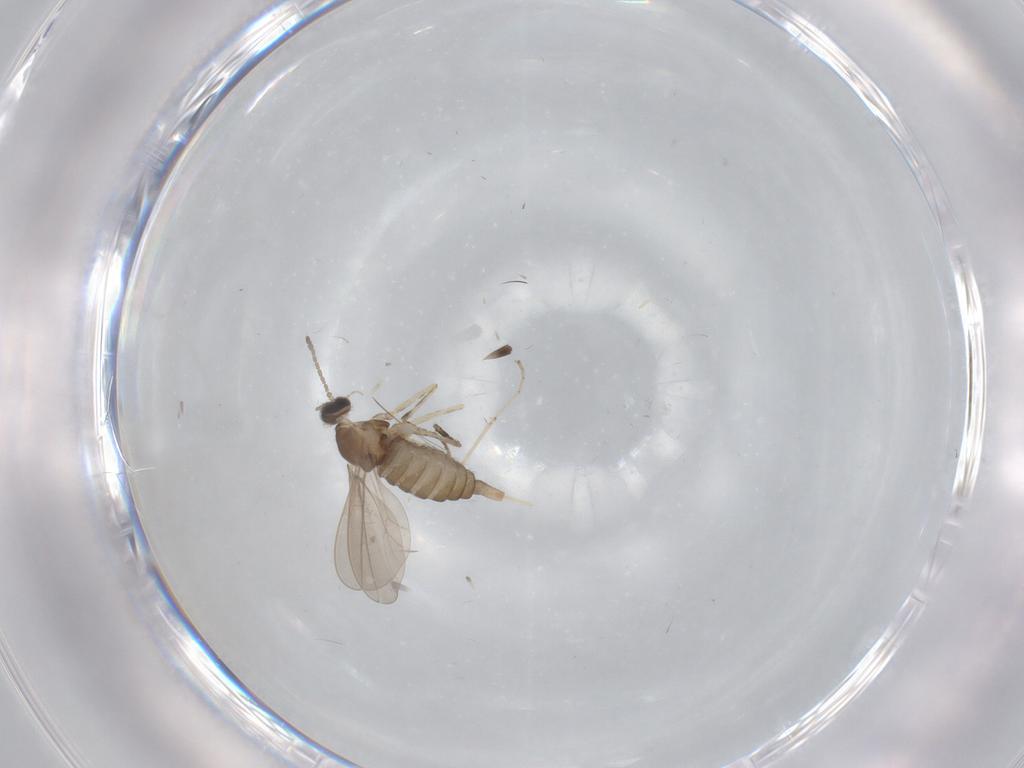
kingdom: Animalia
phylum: Arthropoda
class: Insecta
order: Diptera
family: Cecidomyiidae
